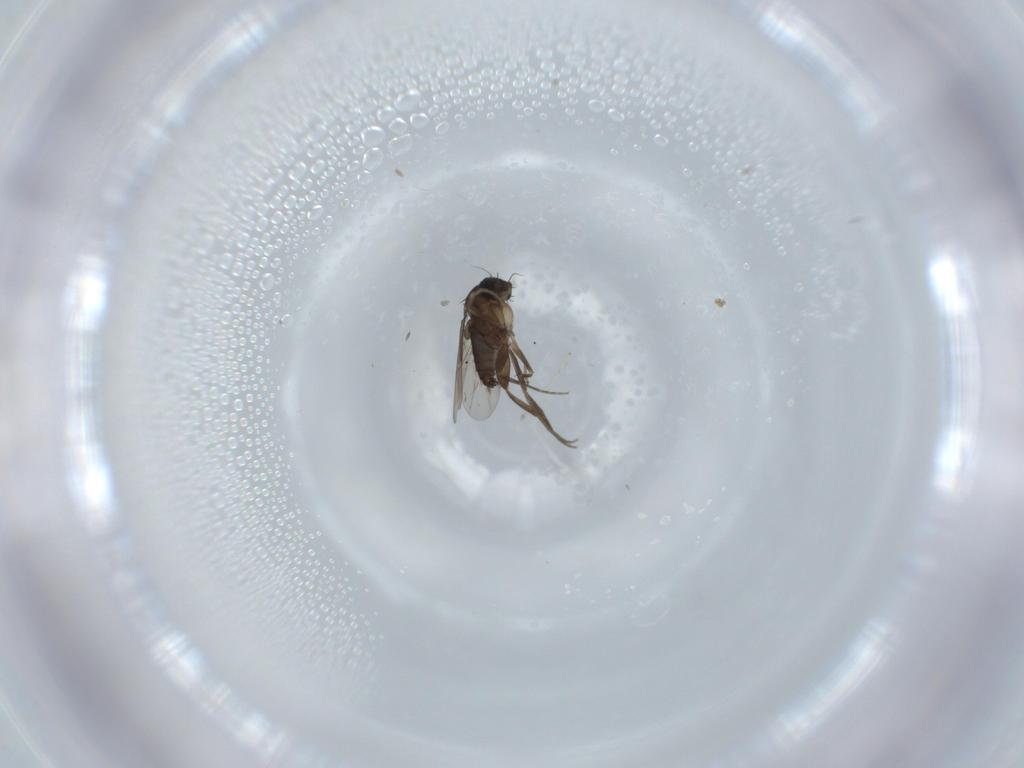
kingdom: Animalia
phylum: Arthropoda
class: Insecta
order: Diptera
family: Phoridae
